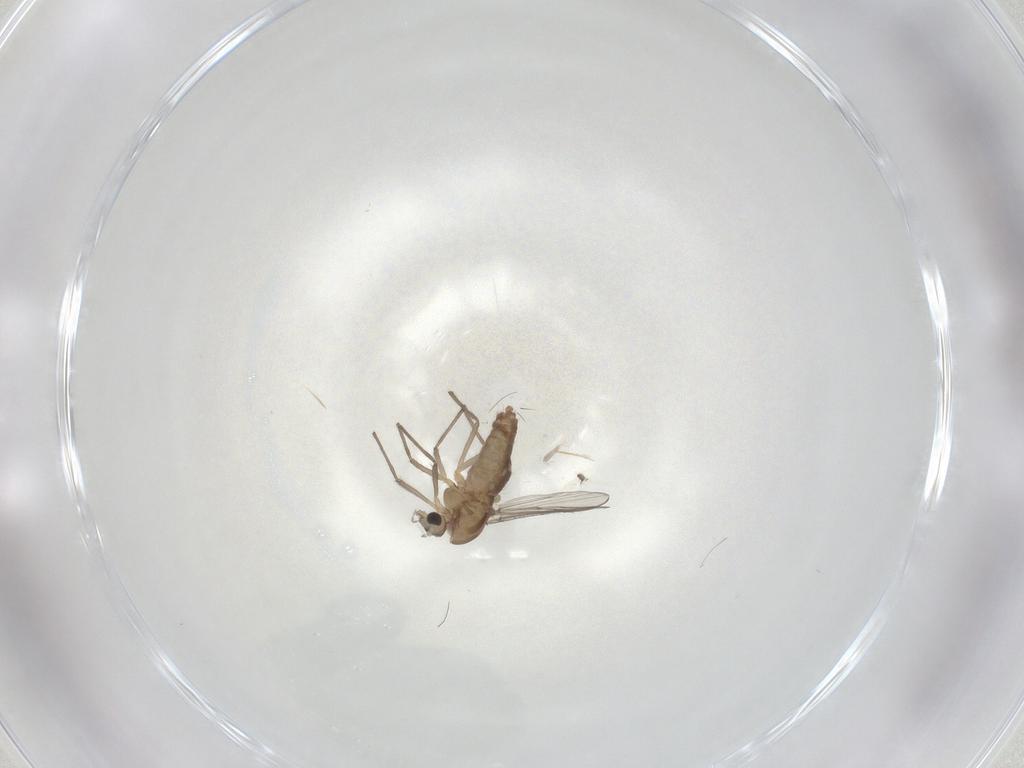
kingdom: Animalia
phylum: Arthropoda
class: Insecta
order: Diptera
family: Chironomidae
